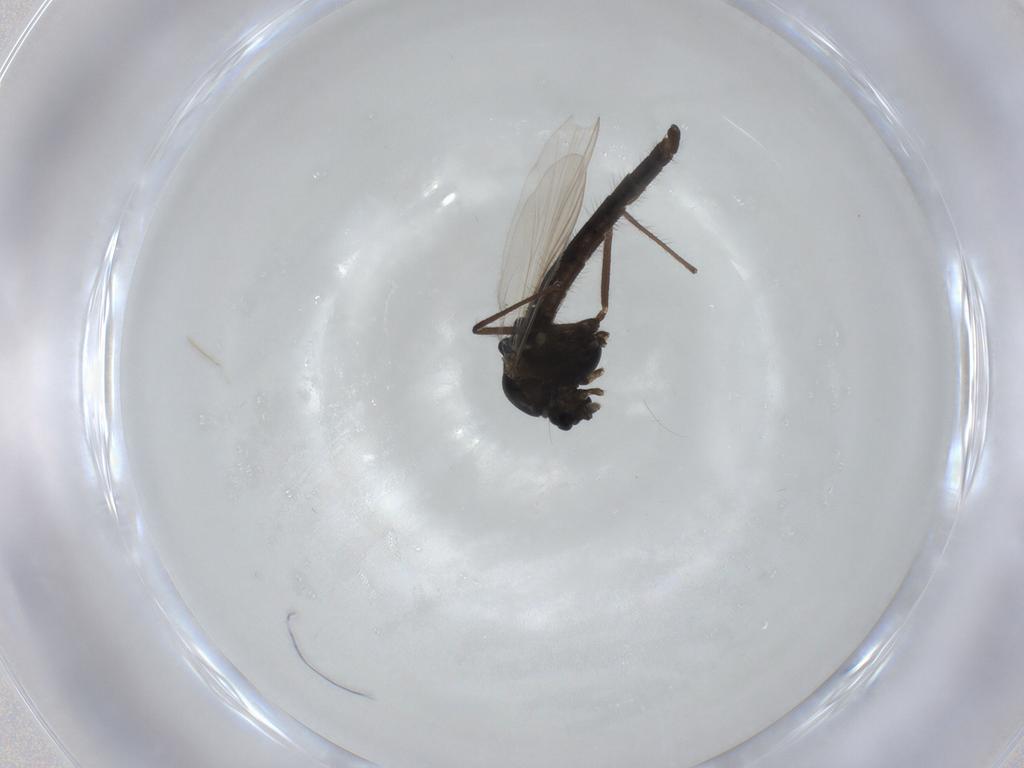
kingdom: Animalia
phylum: Arthropoda
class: Insecta
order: Diptera
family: Chironomidae
